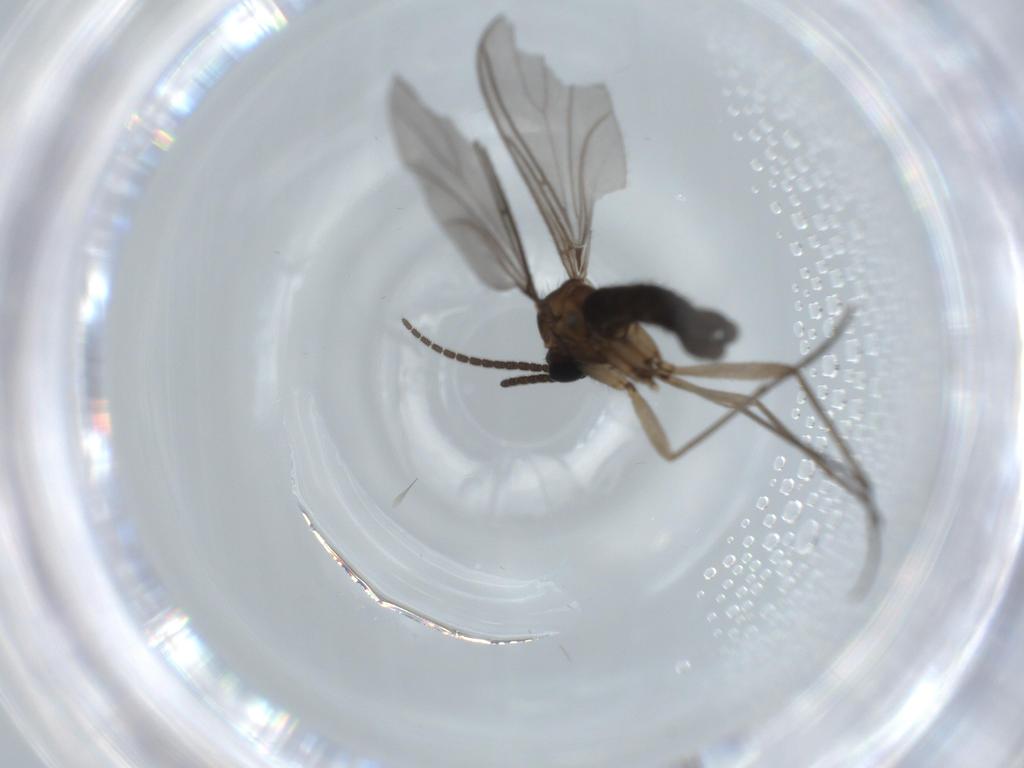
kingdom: Animalia
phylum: Arthropoda
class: Insecta
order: Diptera
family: Sciaridae
